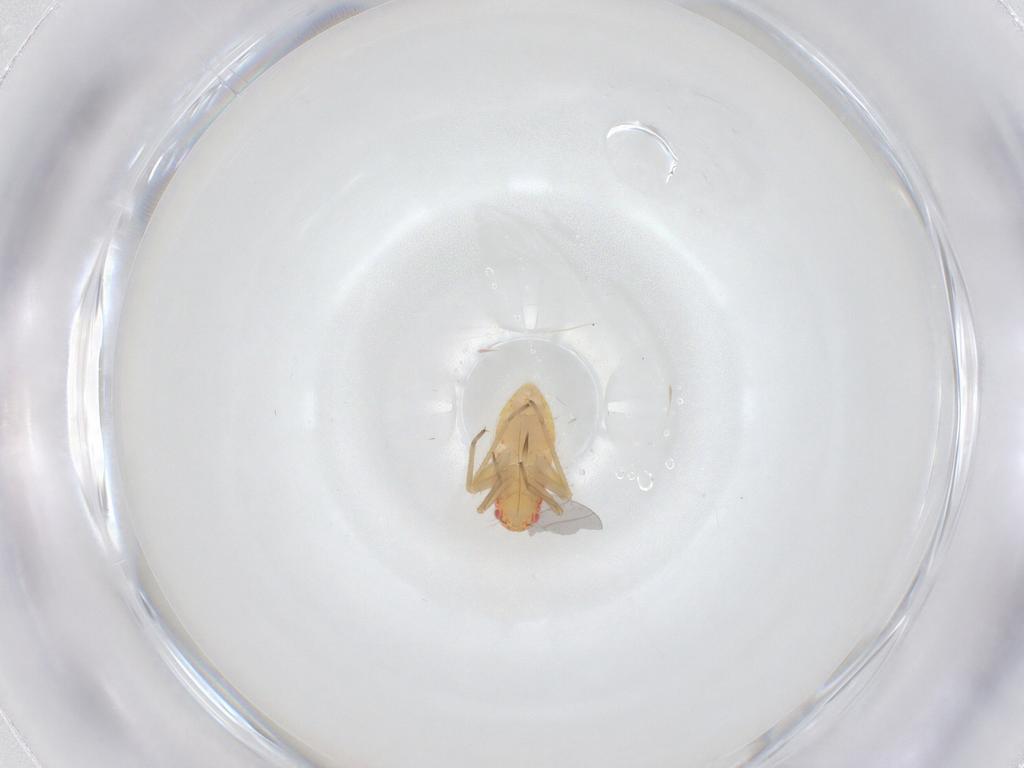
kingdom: Animalia
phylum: Arthropoda
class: Insecta
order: Hemiptera
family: Miridae
